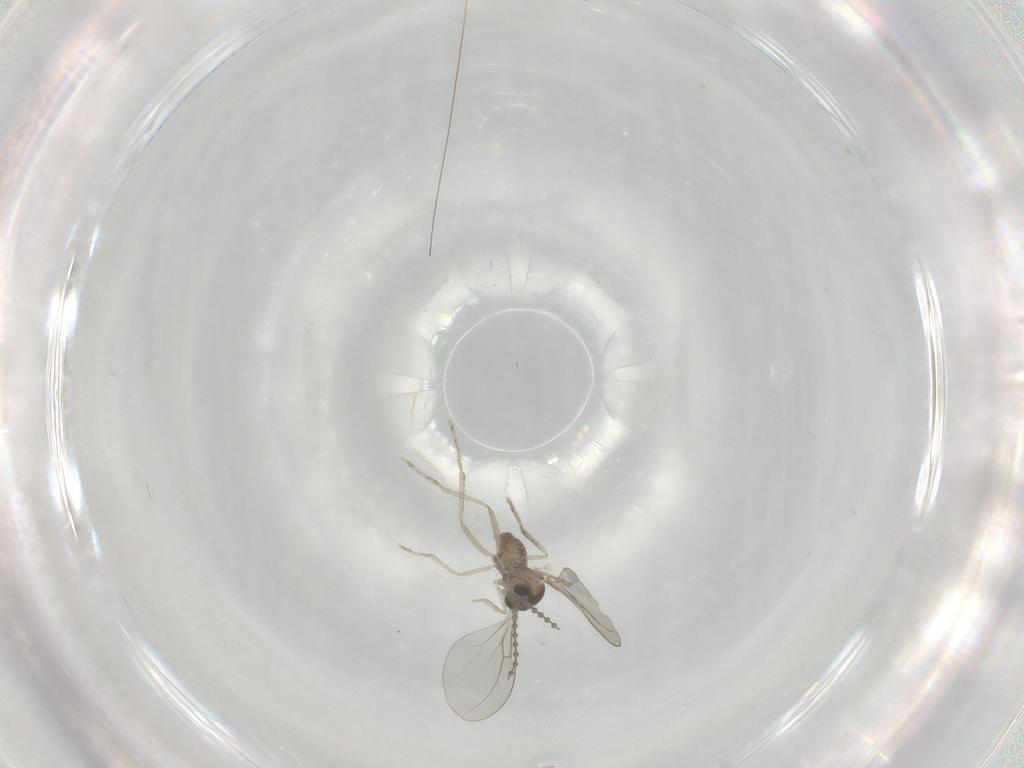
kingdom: Animalia
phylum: Arthropoda
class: Insecta
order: Diptera
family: Cecidomyiidae
